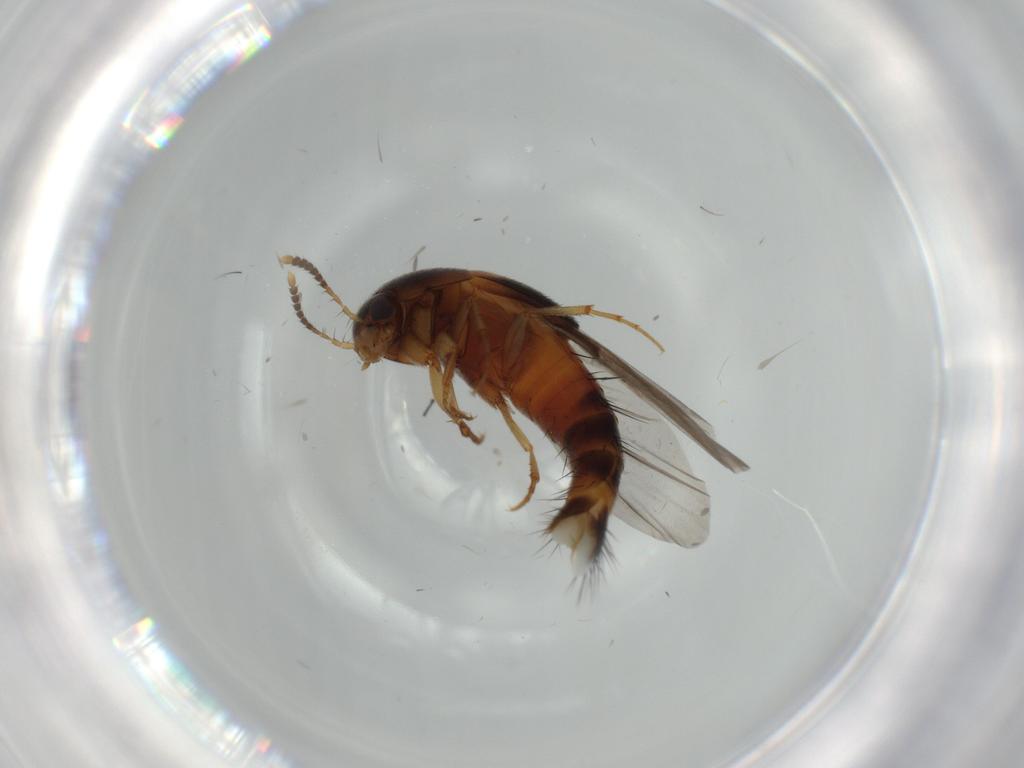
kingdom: Animalia
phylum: Arthropoda
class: Insecta
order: Coleoptera
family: Staphylinidae
